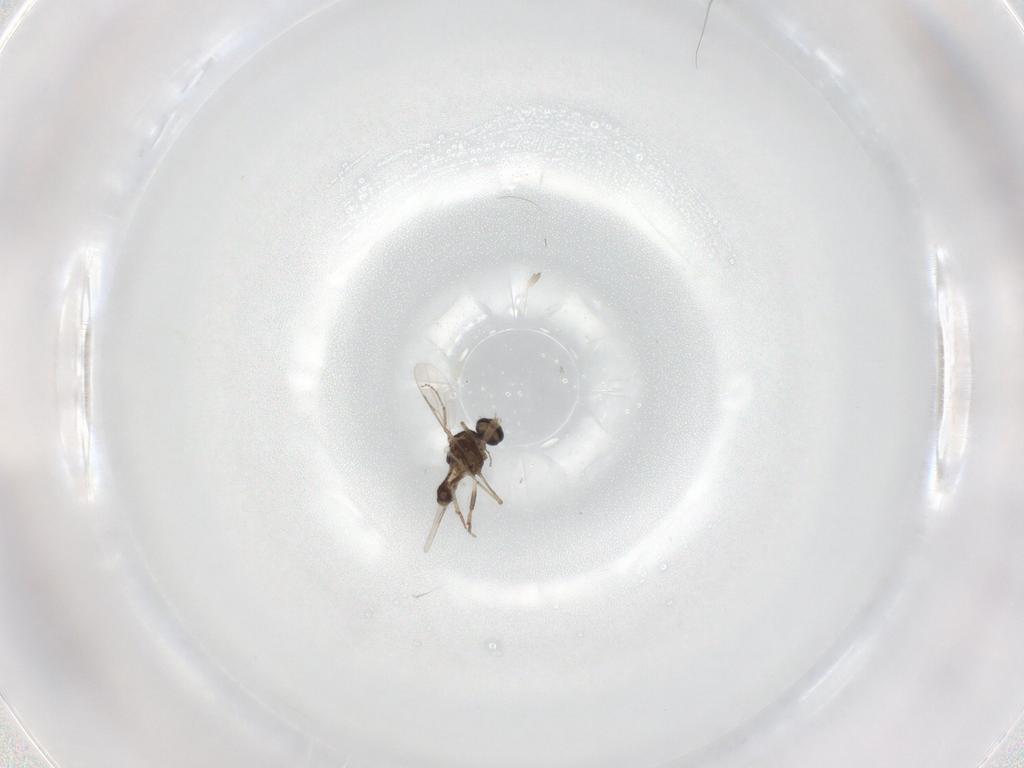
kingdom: Animalia
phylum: Arthropoda
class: Insecta
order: Diptera
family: Ceratopogonidae
